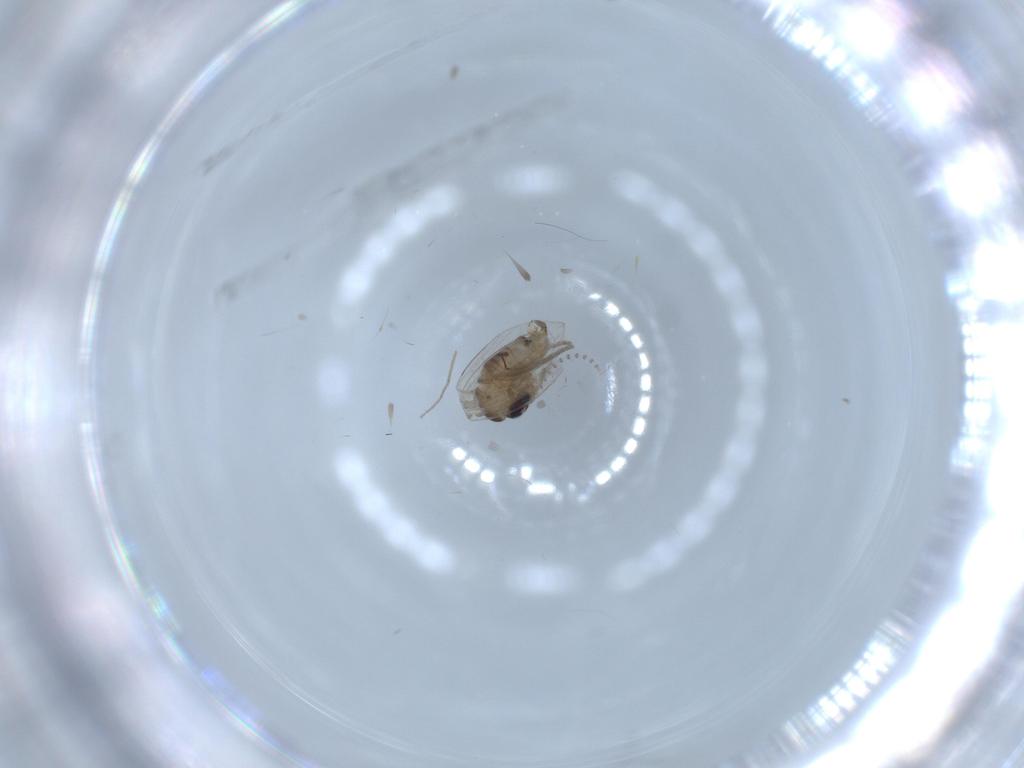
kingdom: Animalia
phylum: Arthropoda
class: Insecta
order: Diptera
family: Psychodidae
